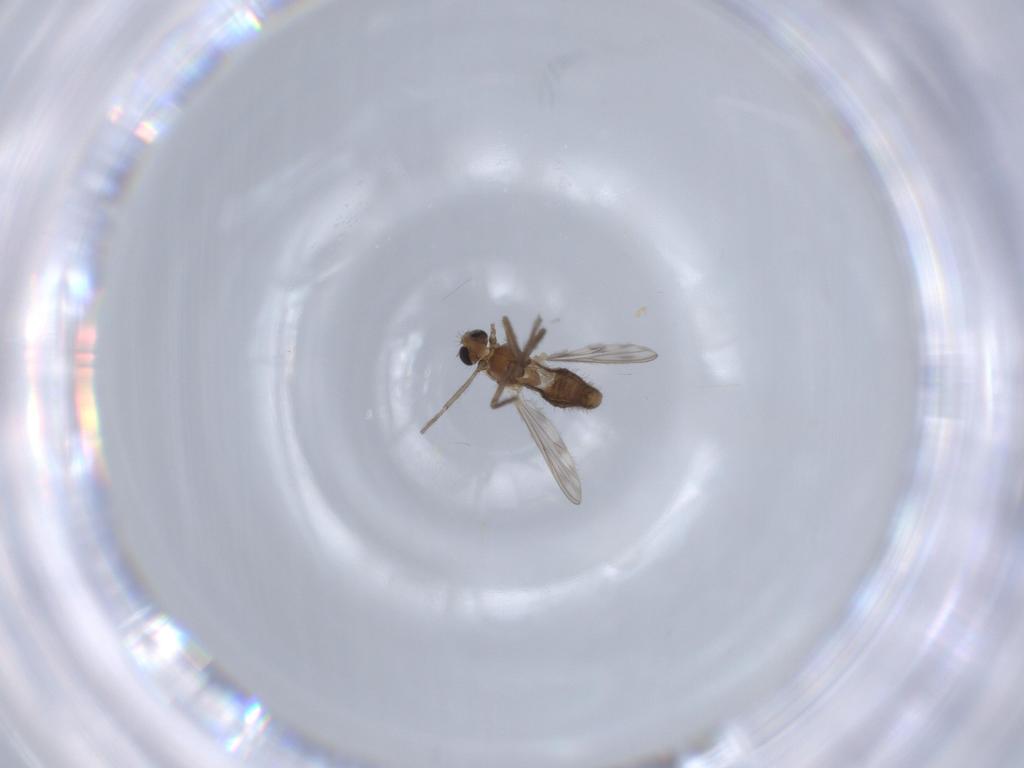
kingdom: Animalia
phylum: Arthropoda
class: Insecta
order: Diptera
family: Chironomidae
